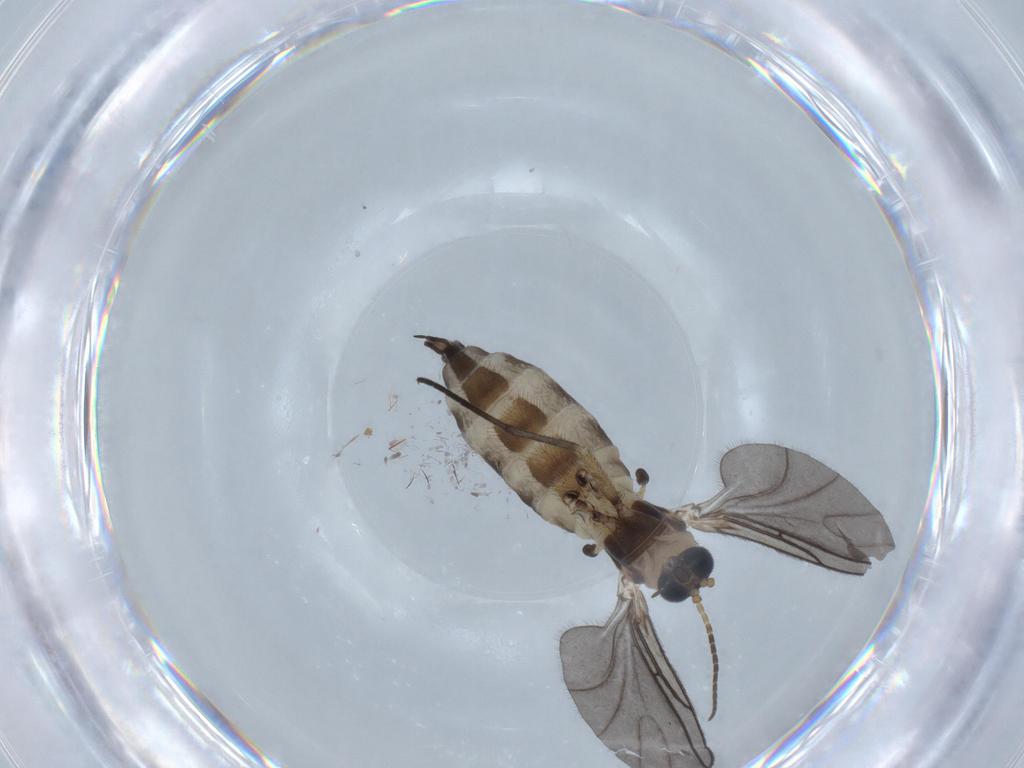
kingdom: Animalia
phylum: Arthropoda
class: Insecta
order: Diptera
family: Sciaridae
